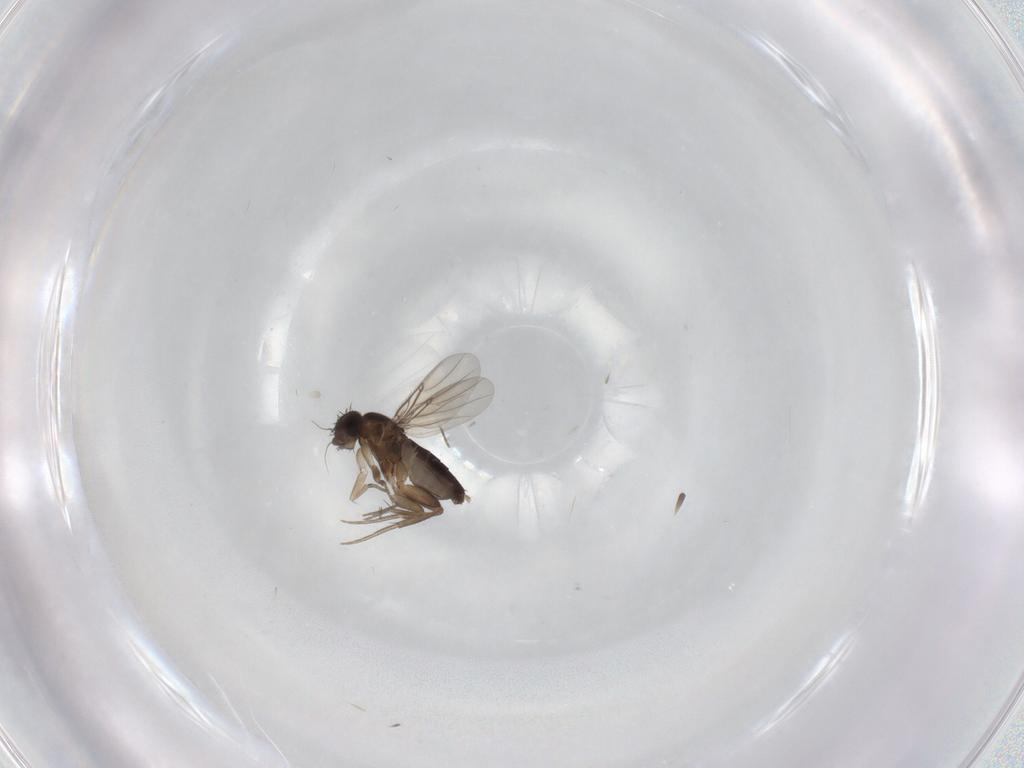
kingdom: Animalia
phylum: Arthropoda
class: Insecta
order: Diptera
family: Phoridae
